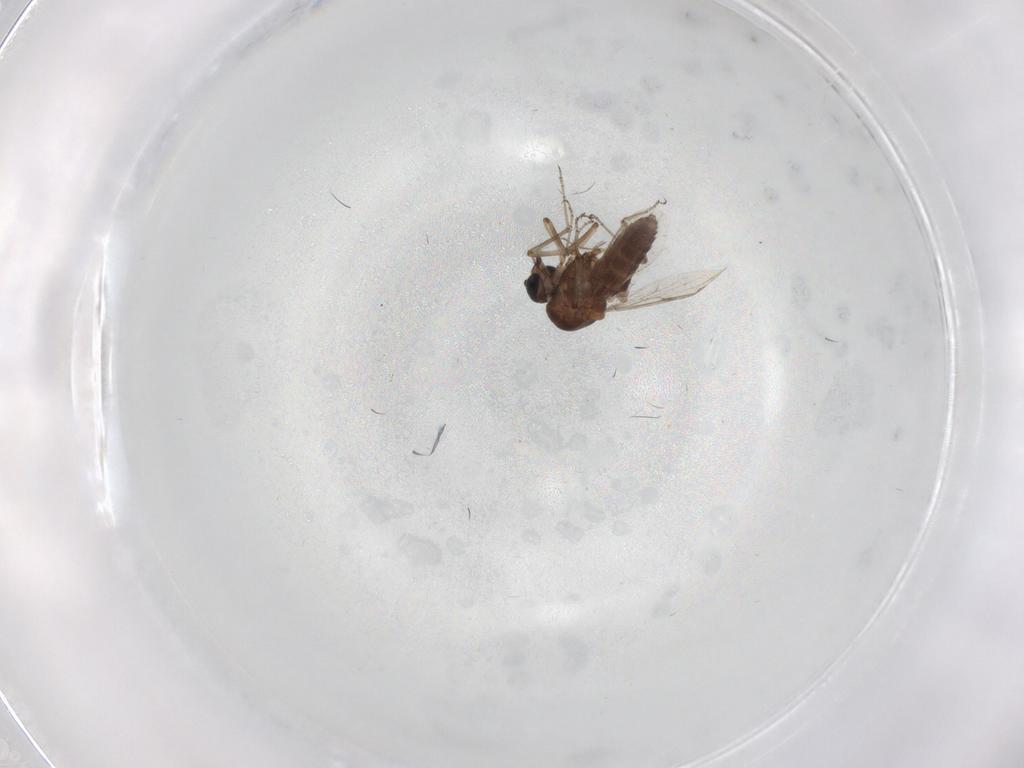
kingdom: Animalia
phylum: Arthropoda
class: Insecta
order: Diptera
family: Ceratopogonidae
